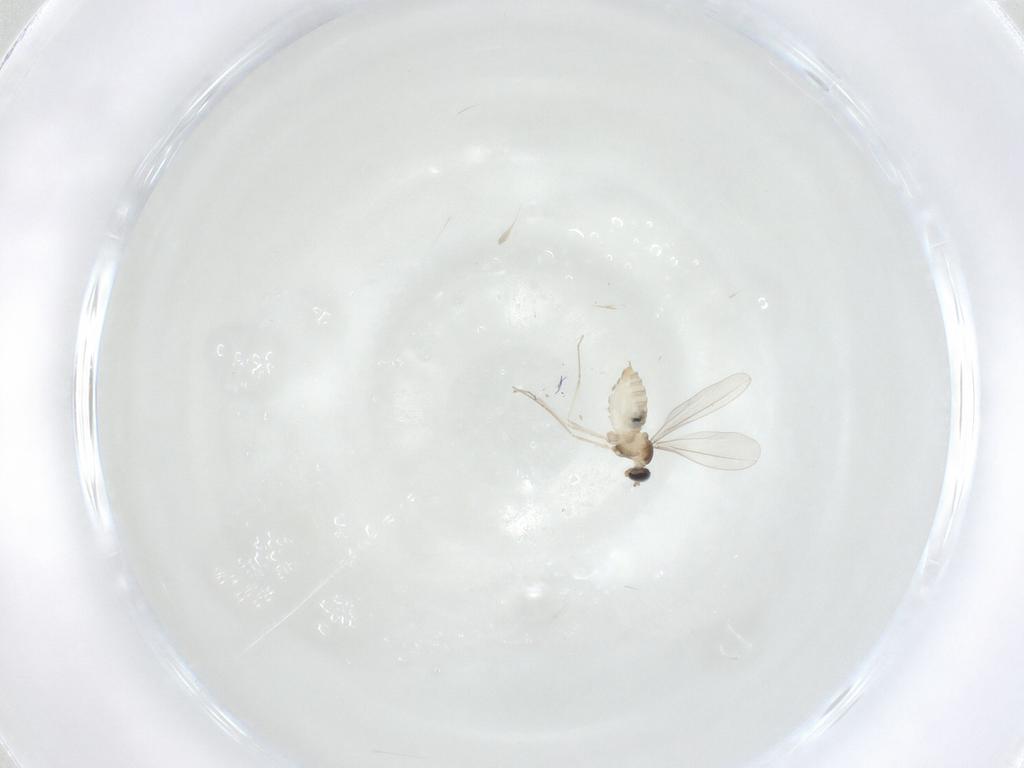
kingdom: Animalia
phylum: Arthropoda
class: Insecta
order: Diptera
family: Ceratopogonidae
